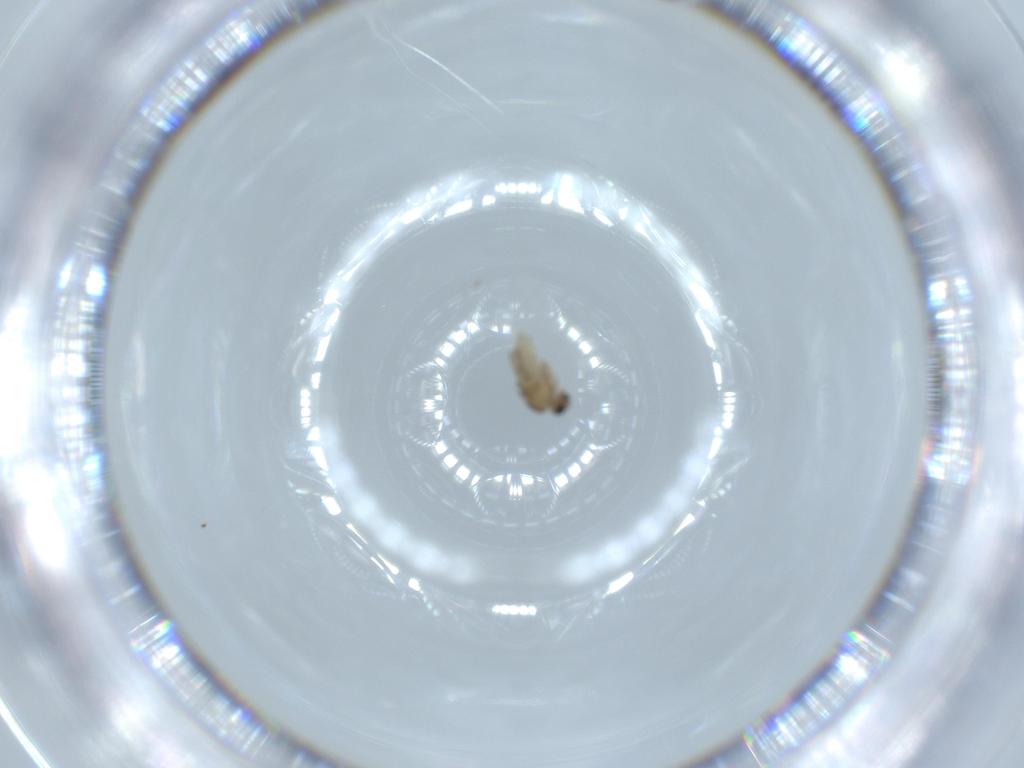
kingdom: Animalia
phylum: Arthropoda
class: Insecta
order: Diptera
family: Cecidomyiidae
